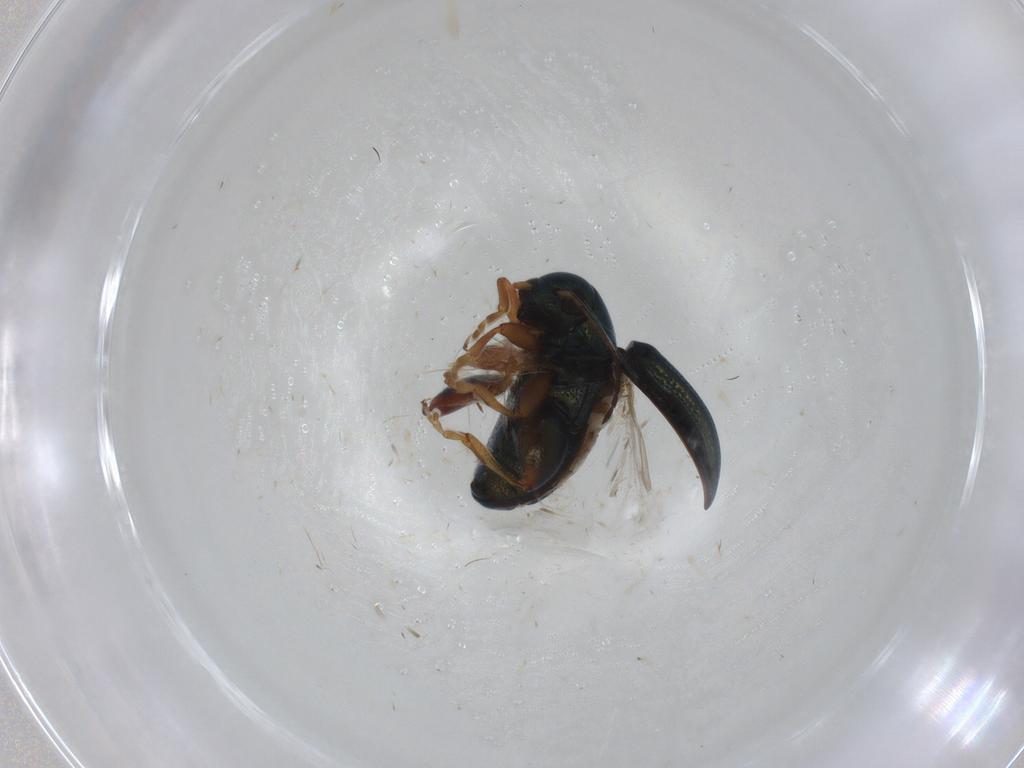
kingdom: Animalia
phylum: Arthropoda
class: Insecta
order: Coleoptera
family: Chrysomelidae
